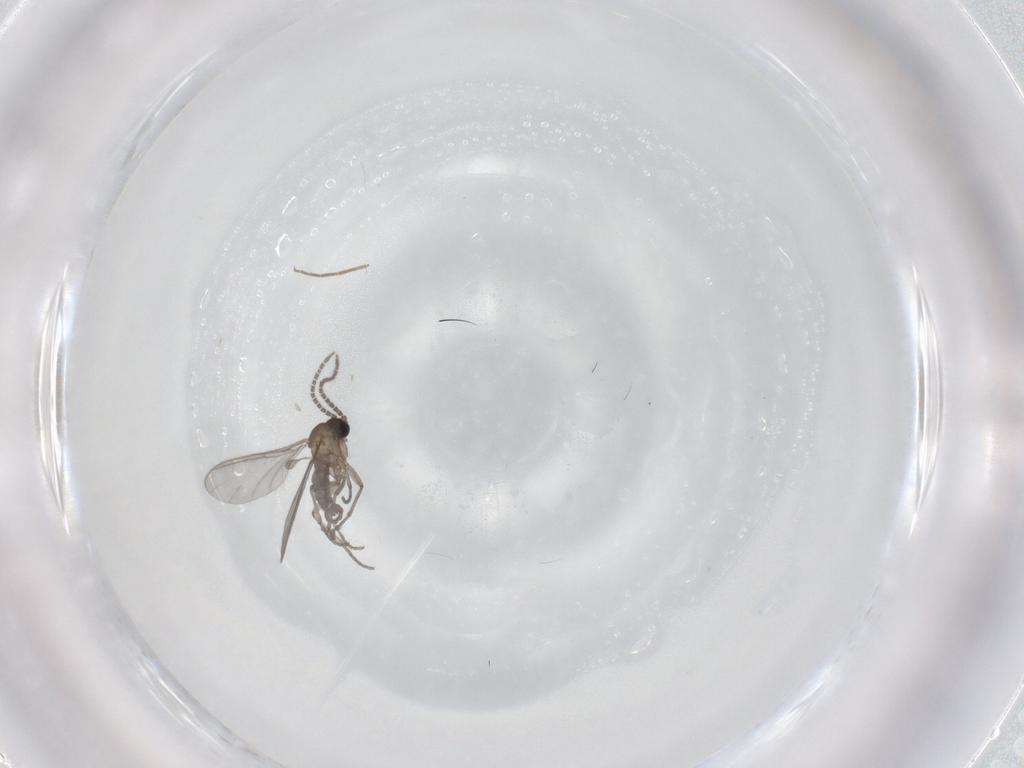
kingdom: Animalia
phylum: Arthropoda
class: Insecta
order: Diptera
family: Sciaridae
